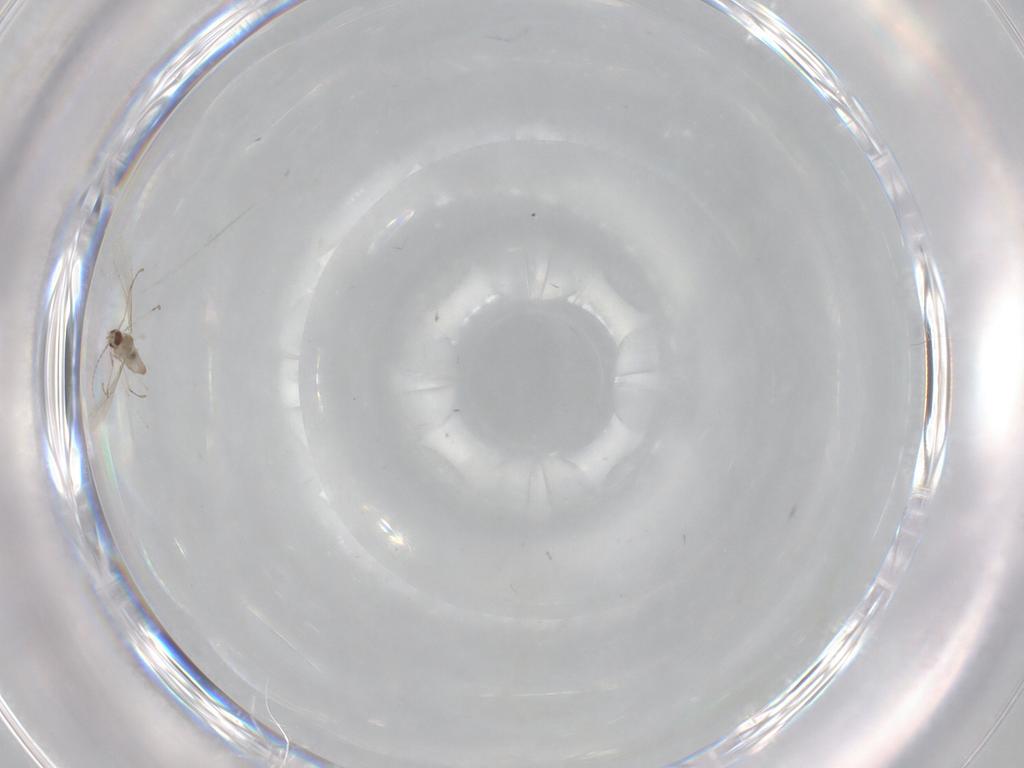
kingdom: Animalia
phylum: Arthropoda
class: Insecta
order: Diptera
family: Cecidomyiidae
